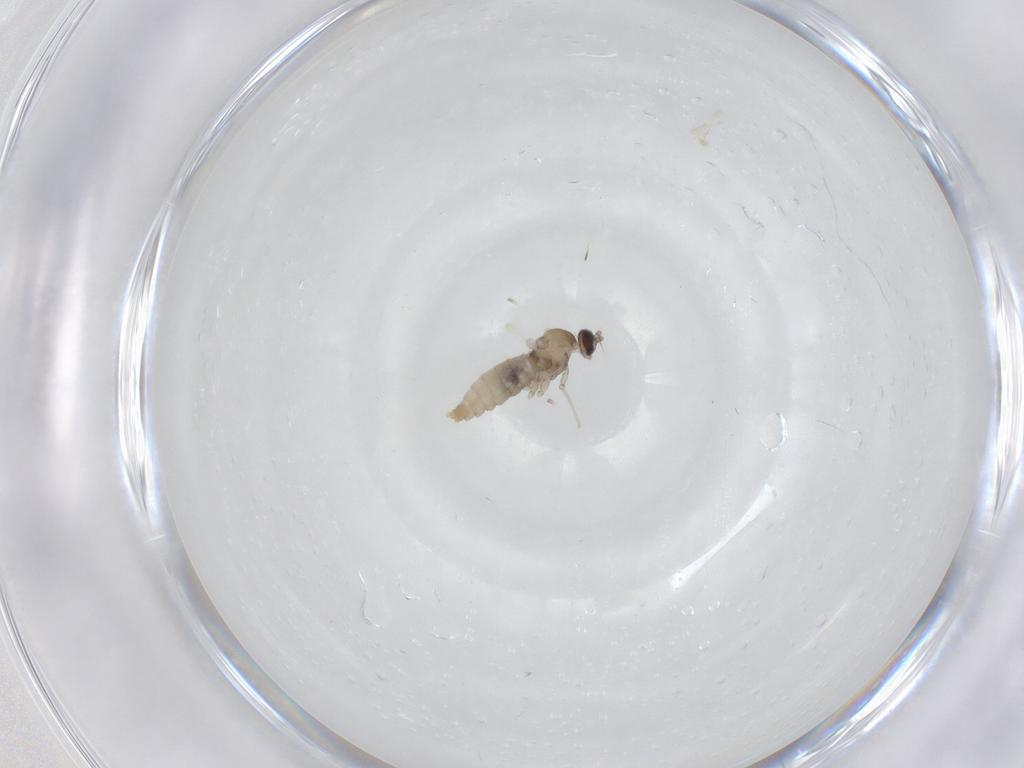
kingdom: Animalia
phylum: Arthropoda
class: Insecta
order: Diptera
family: Cecidomyiidae
